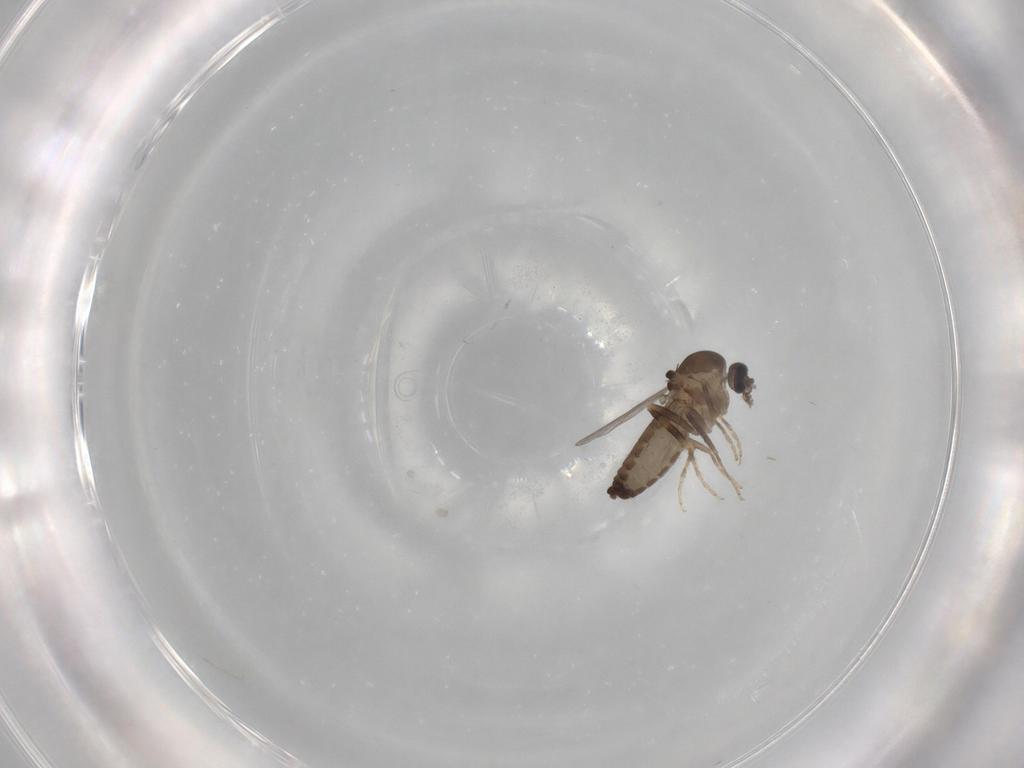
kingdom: Animalia
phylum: Arthropoda
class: Insecta
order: Diptera
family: Ceratopogonidae
